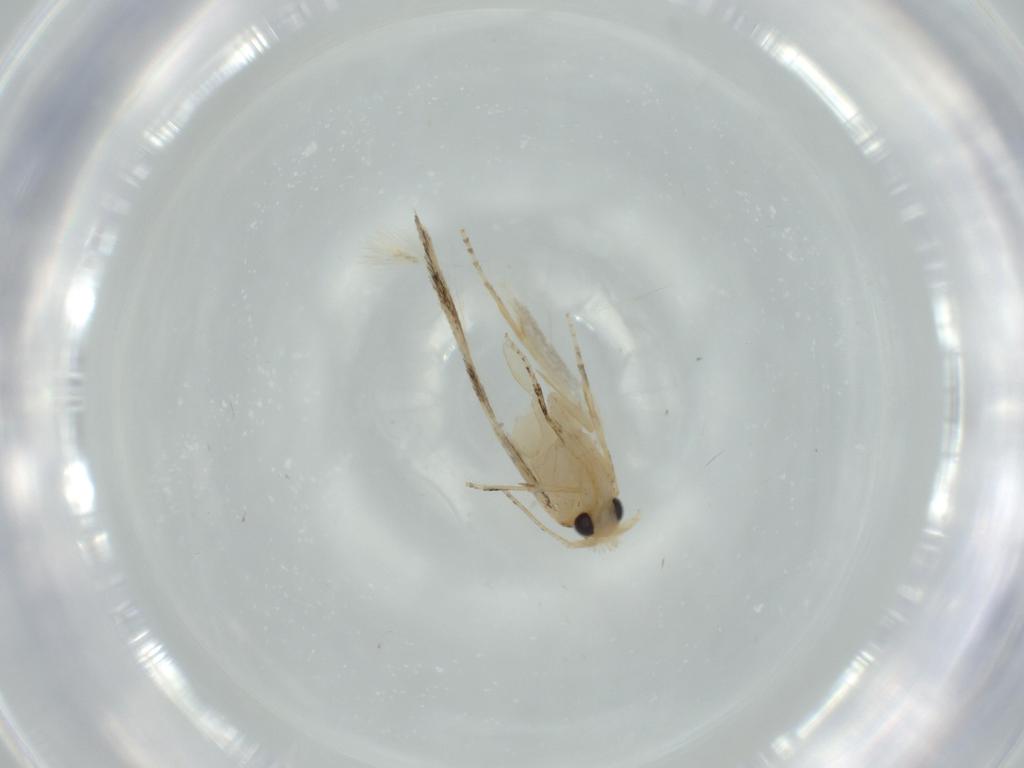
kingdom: Animalia
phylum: Arthropoda
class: Insecta
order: Lepidoptera
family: Bucculatricidae
